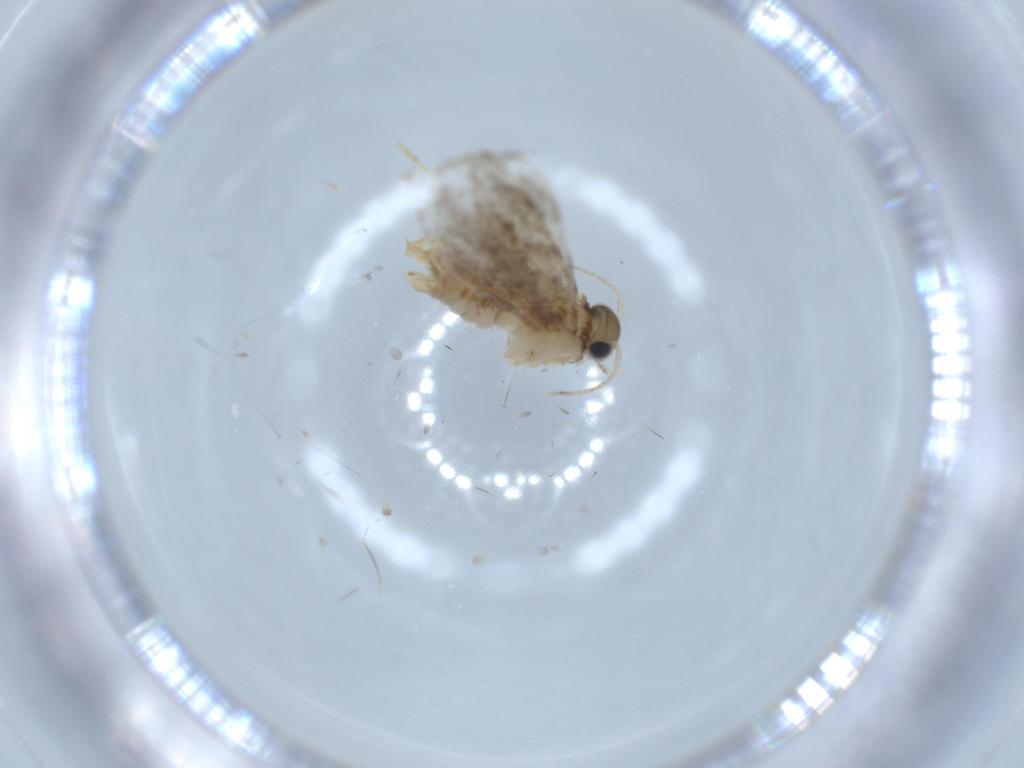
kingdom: Animalia
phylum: Arthropoda
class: Insecta
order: Lepidoptera
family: Tineidae
